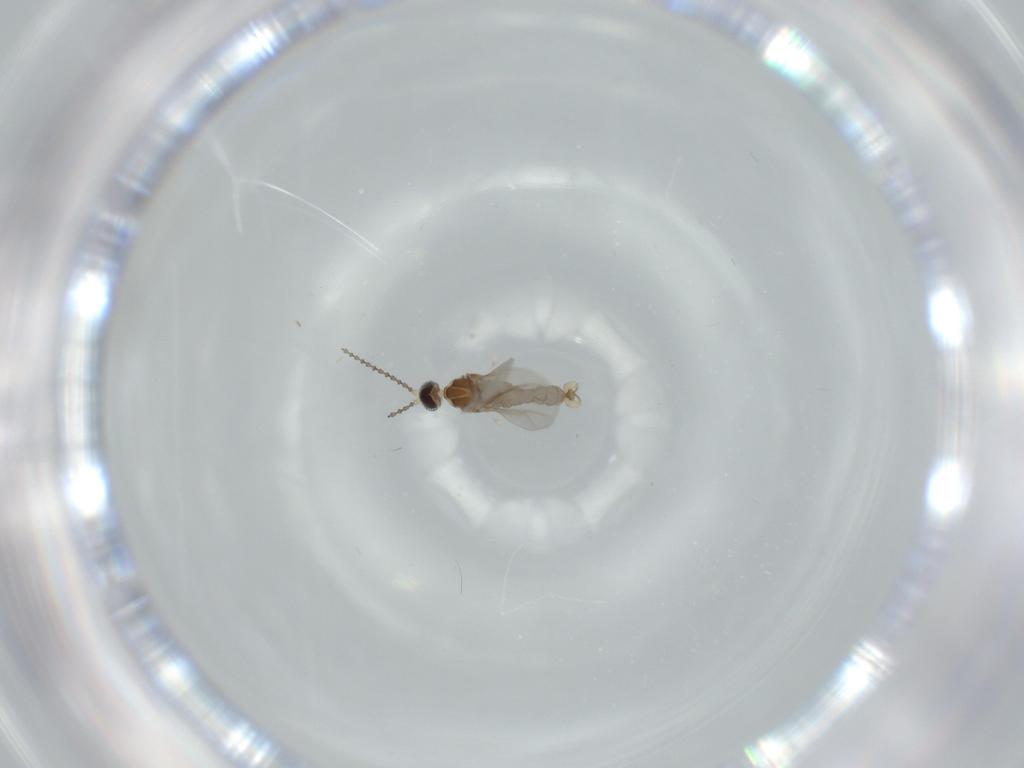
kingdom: Animalia
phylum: Arthropoda
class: Insecta
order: Diptera
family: Cecidomyiidae
